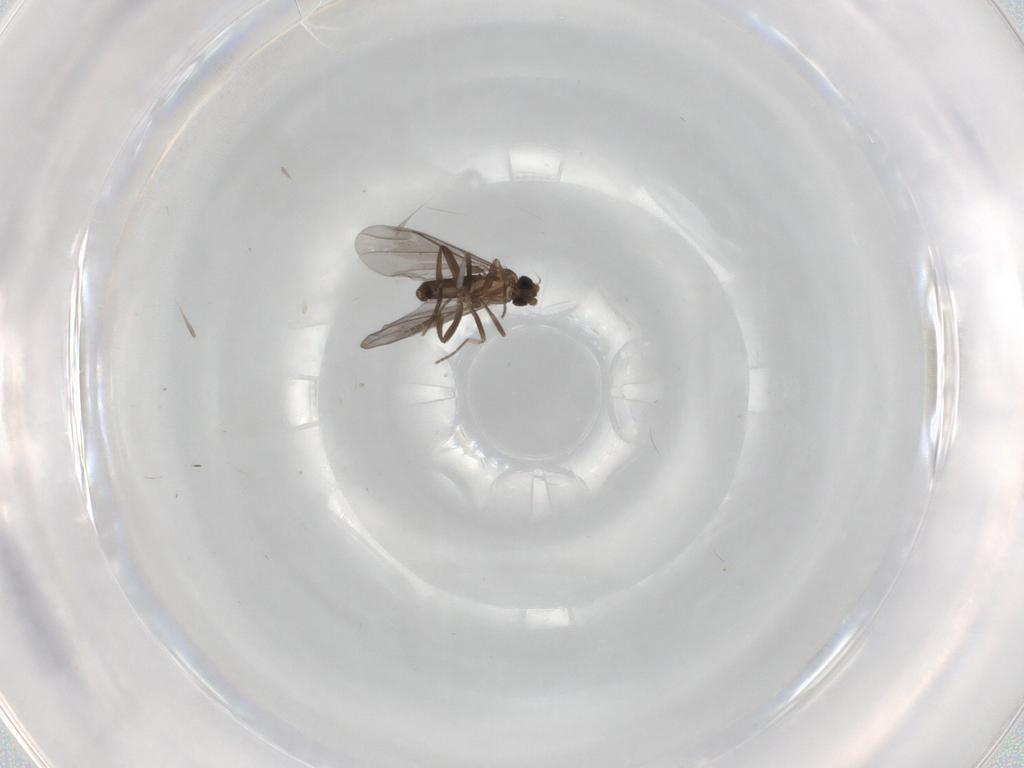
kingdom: Animalia
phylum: Arthropoda
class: Insecta
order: Diptera
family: Phoridae
